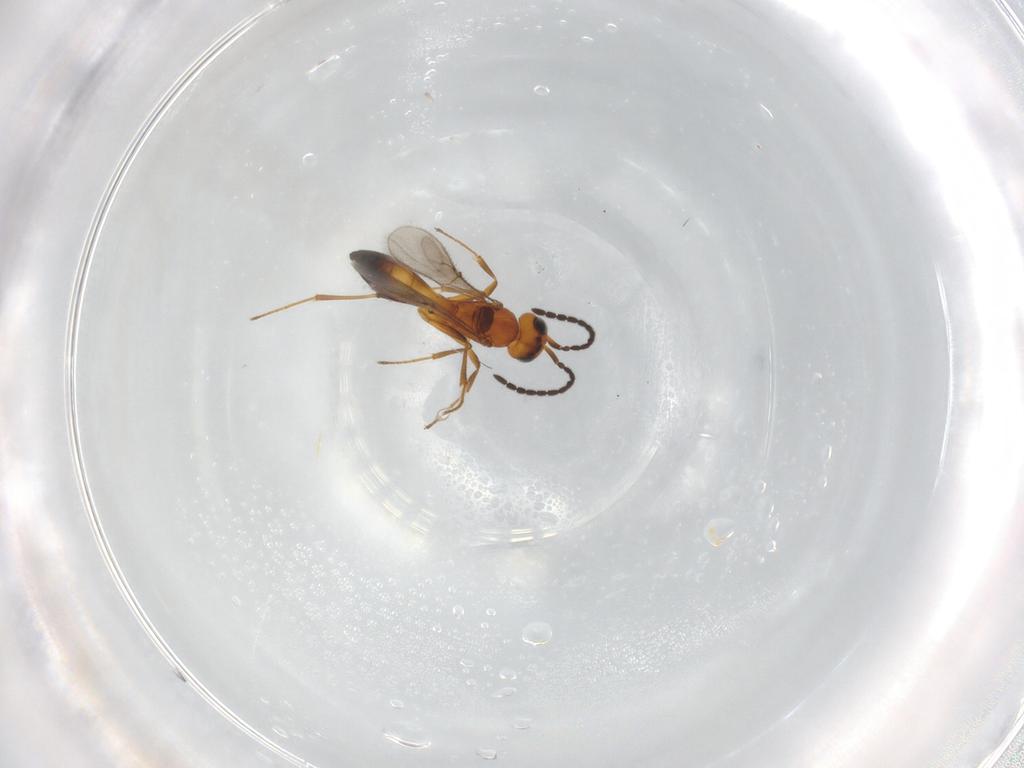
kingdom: Animalia
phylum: Arthropoda
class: Insecta
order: Hymenoptera
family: Scelionidae
